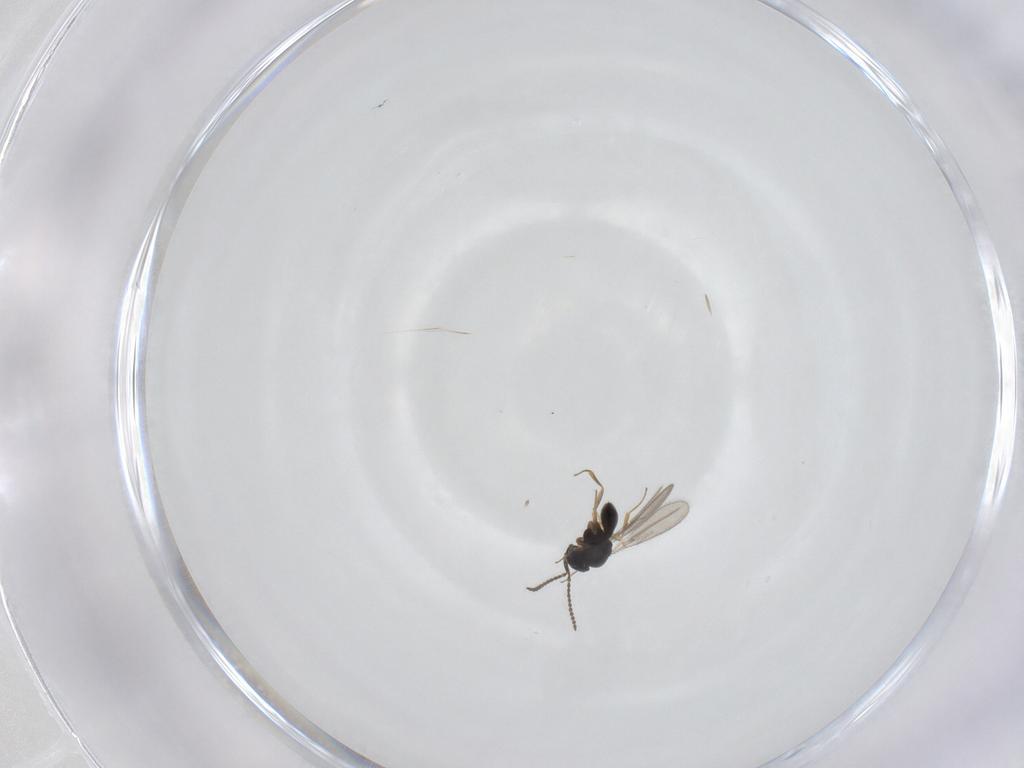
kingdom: Animalia
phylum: Arthropoda
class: Insecta
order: Hymenoptera
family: Scelionidae
